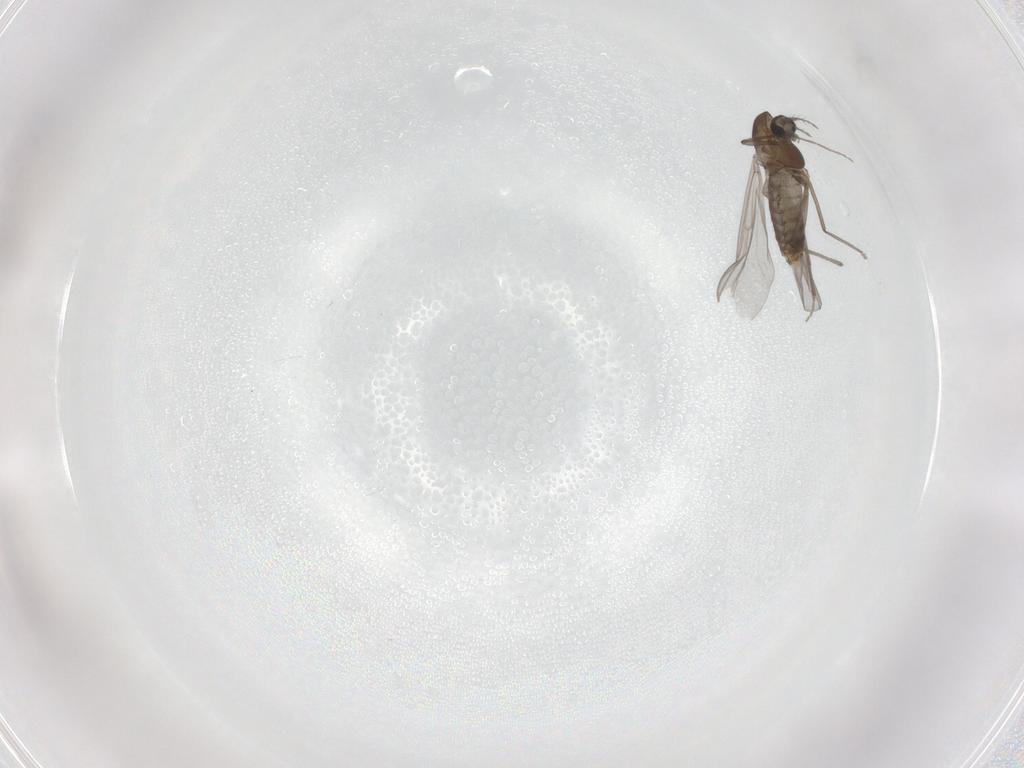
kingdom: Animalia
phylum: Arthropoda
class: Insecta
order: Diptera
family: Chironomidae
